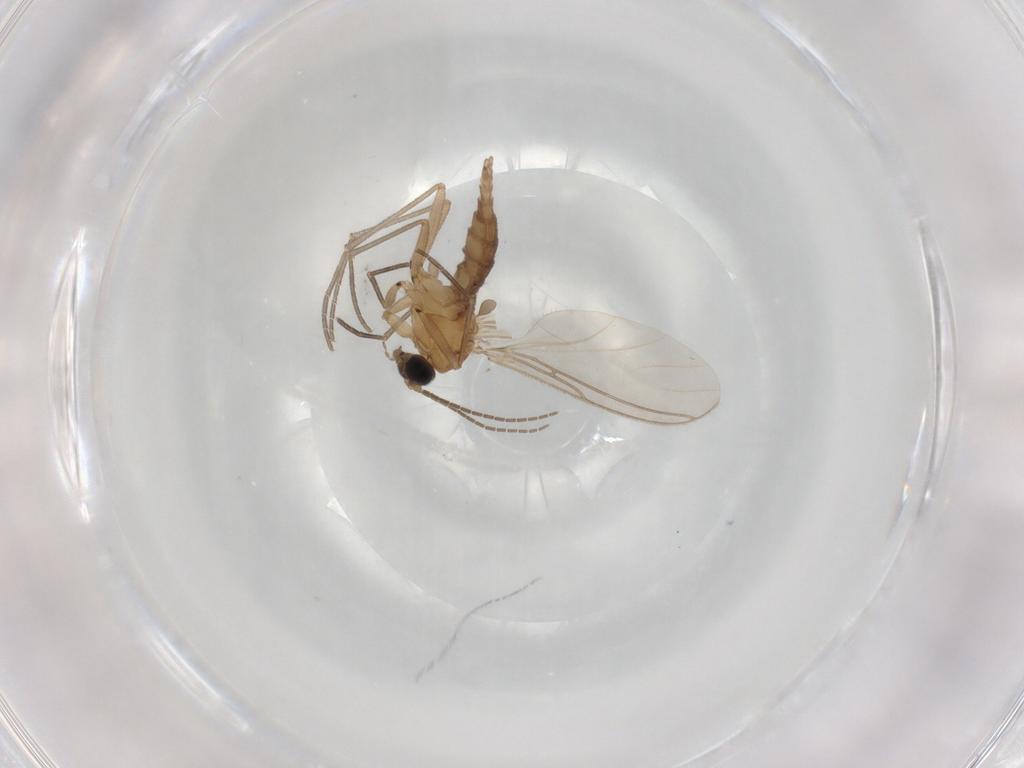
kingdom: Animalia
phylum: Arthropoda
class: Insecta
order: Diptera
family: Sciaridae
